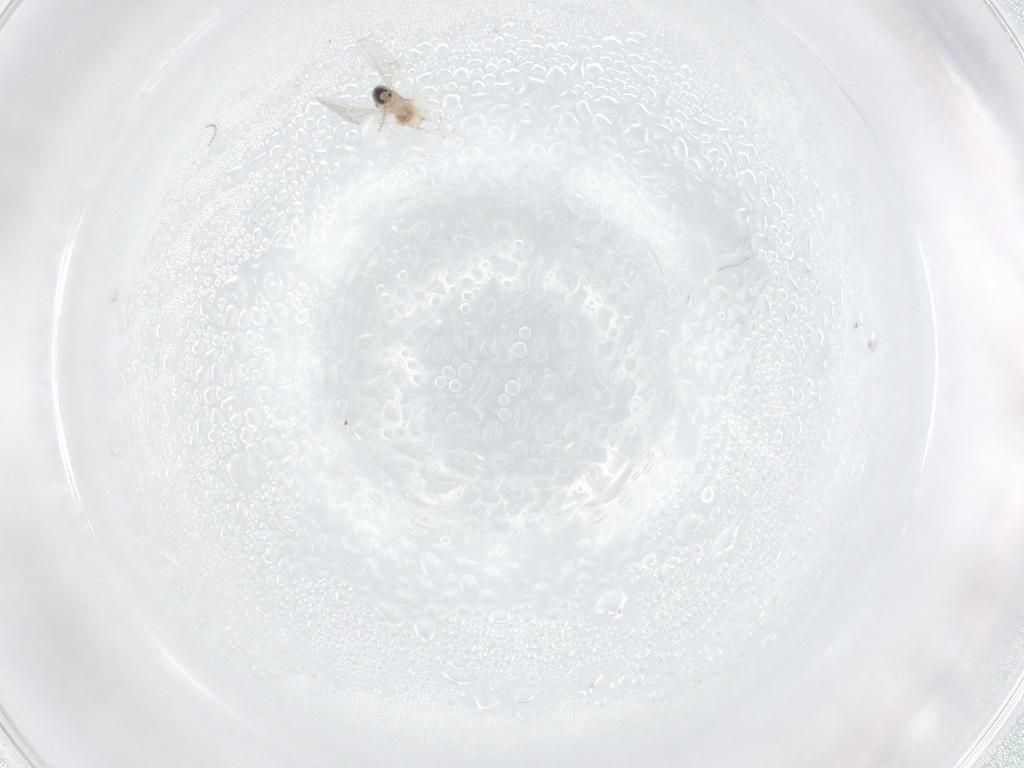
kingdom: Animalia
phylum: Arthropoda
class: Insecta
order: Diptera
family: Cecidomyiidae
